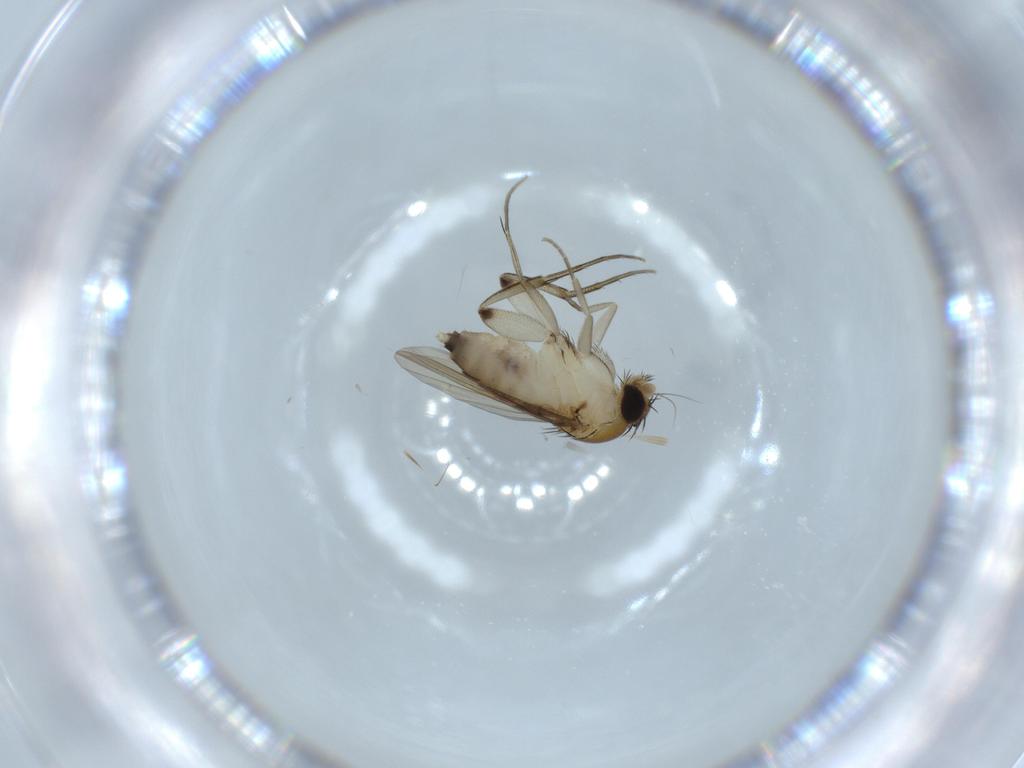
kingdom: Animalia
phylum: Arthropoda
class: Insecta
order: Diptera
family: Phoridae
